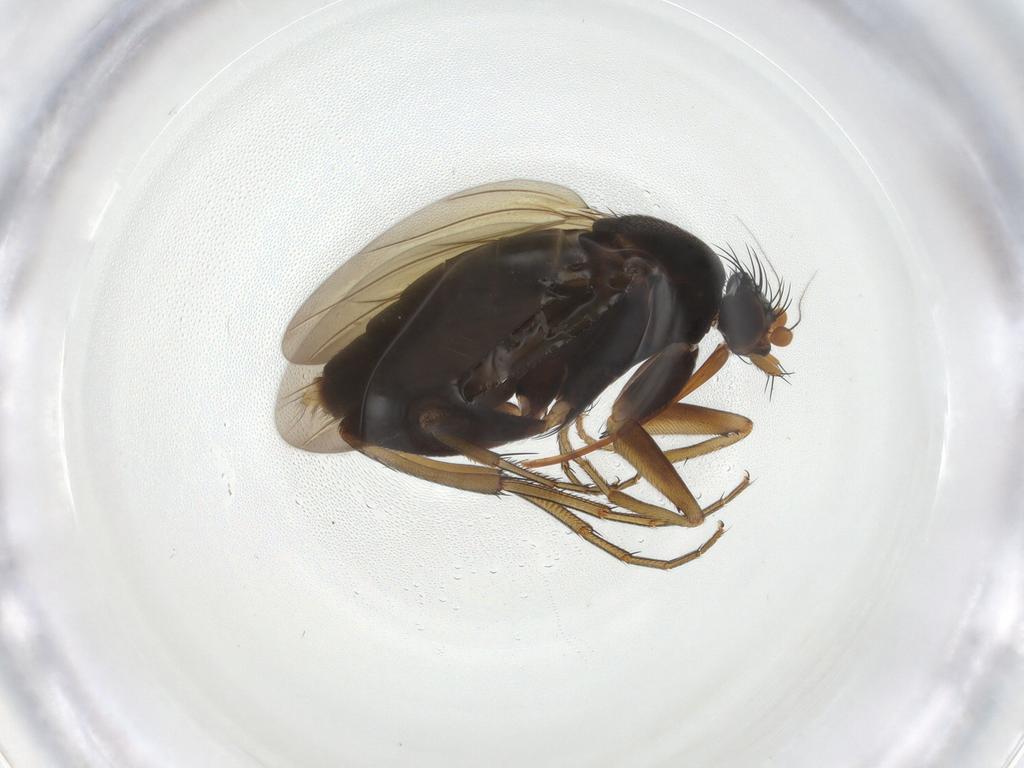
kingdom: Animalia
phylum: Arthropoda
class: Insecta
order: Diptera
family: Phoridae
